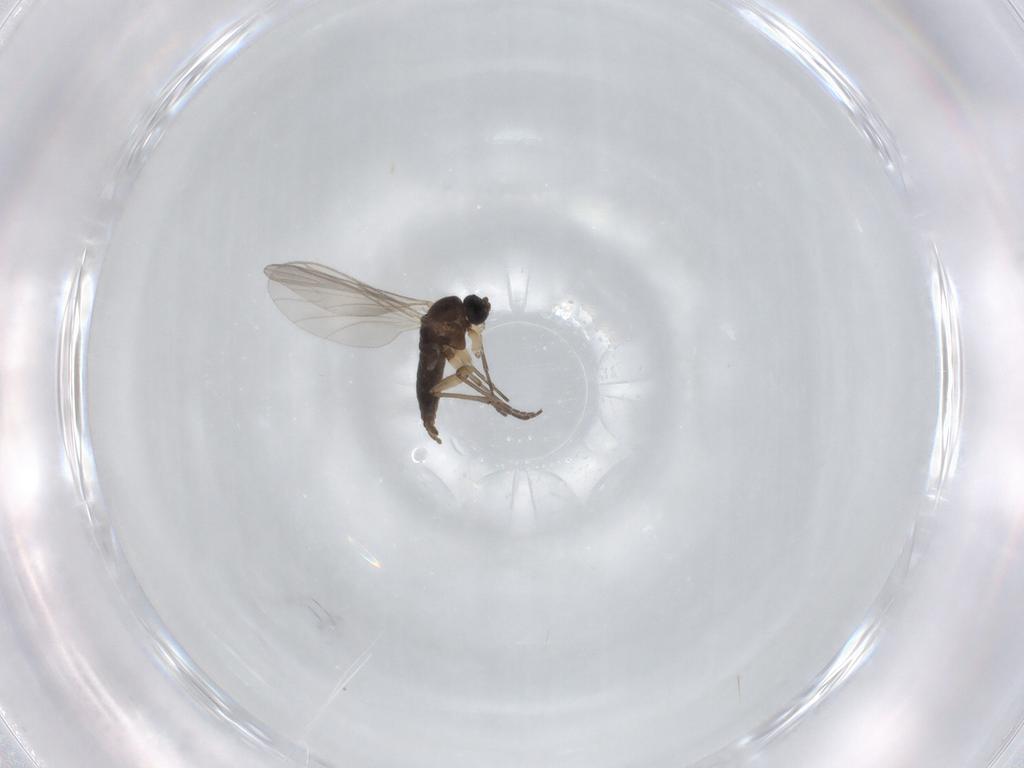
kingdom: Animalia
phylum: Arthropoda
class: Insecta
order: Diptera
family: Sciaridae
